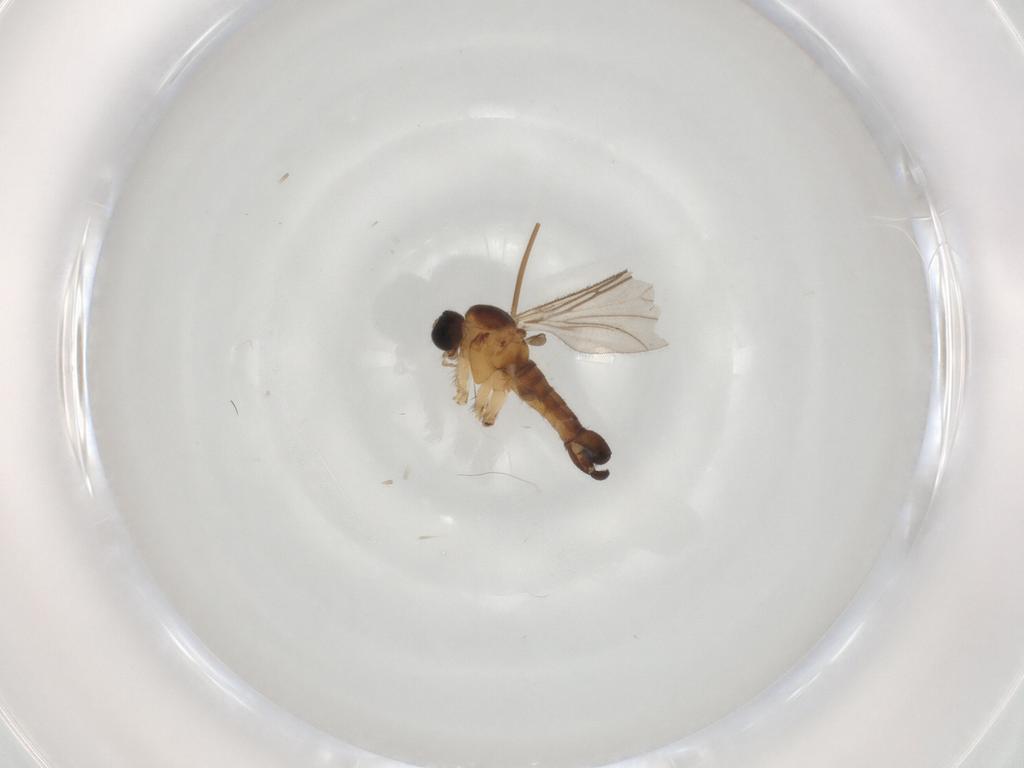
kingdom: Animalia
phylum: Arthropoda
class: Insecta
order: Diptera
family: Sciaridae
